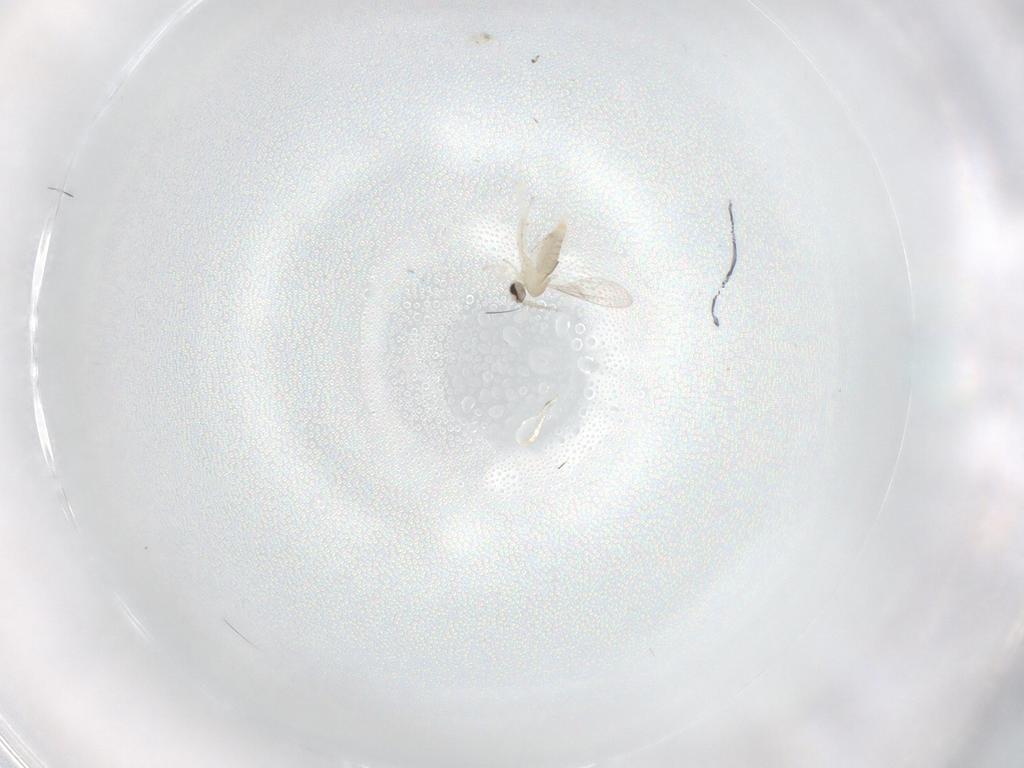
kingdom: Animalia
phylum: Arthropoda
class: Insecta
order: Diptera
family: Cecidomyiidae
